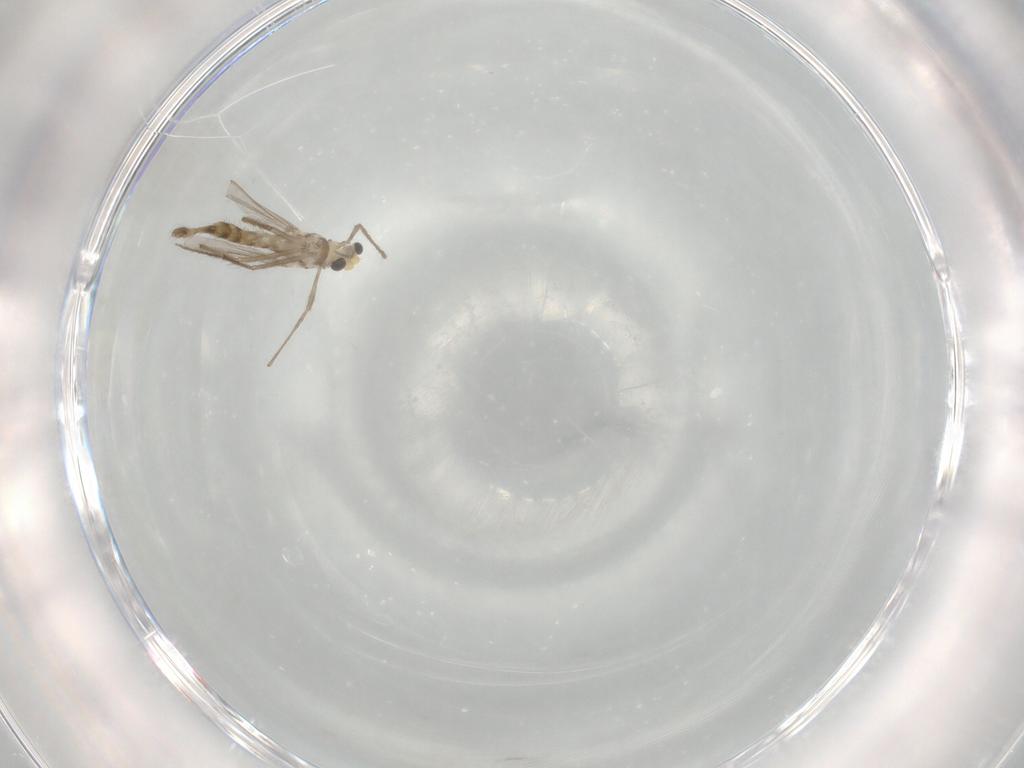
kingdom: Animalia
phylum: Arthropoda
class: Insecta
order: Diptera
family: Chironomidae
